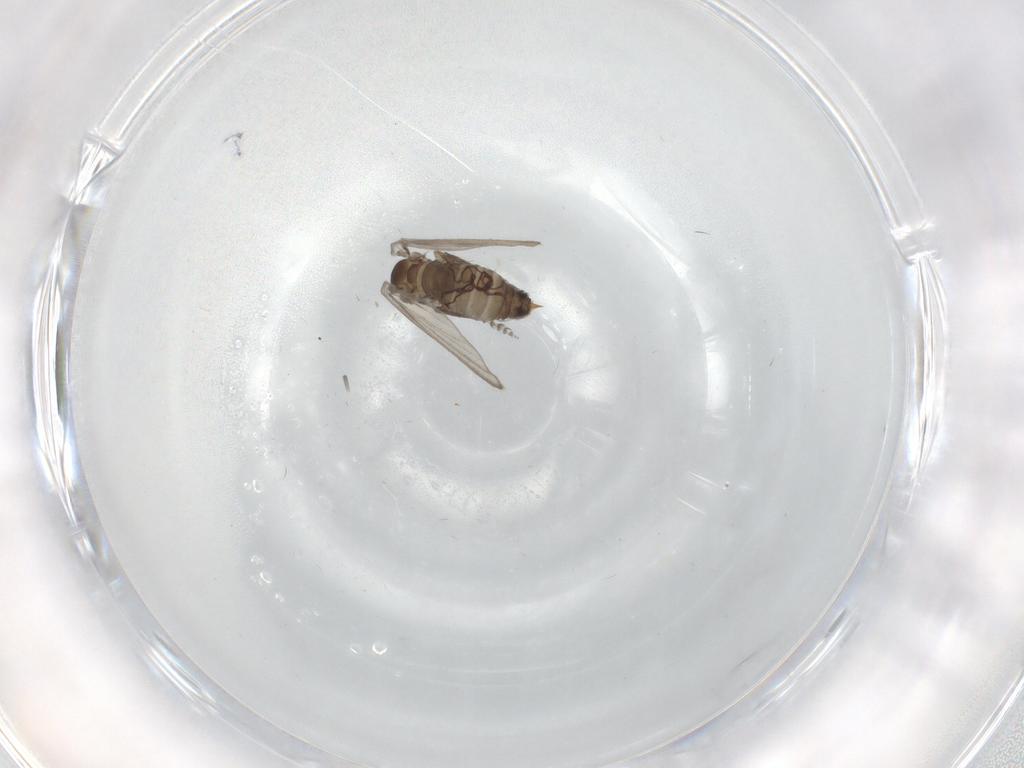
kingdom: Animalia
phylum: Arthropoda
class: Insecta
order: Diptera
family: Psychodidae
